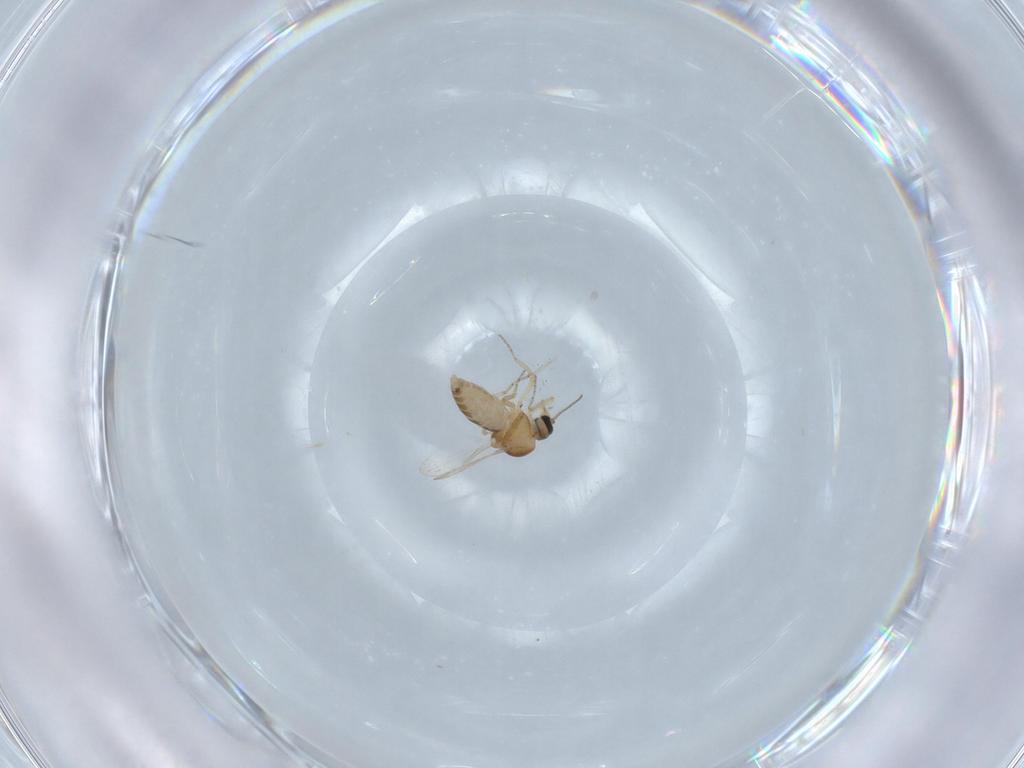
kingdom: Animalia
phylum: Arthropoda
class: Insecta
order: Diptera
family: Ceratopogonidae
